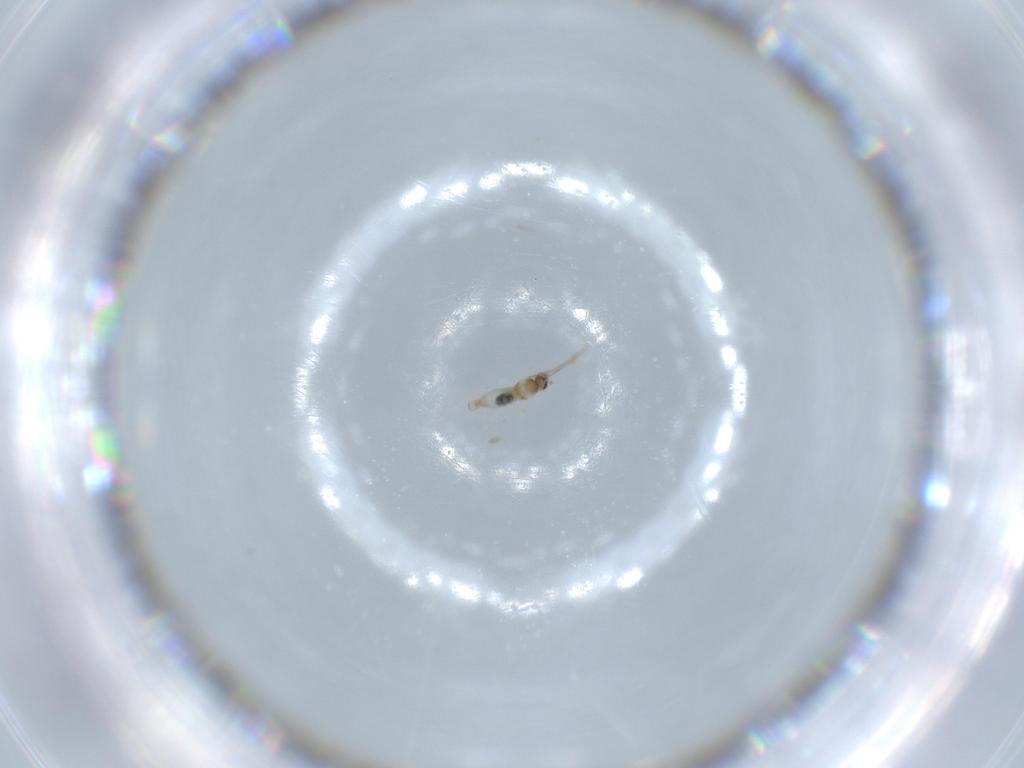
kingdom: Animalia
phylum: Arthropoda
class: Insecta
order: Diptera
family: Cecidomyiidae
